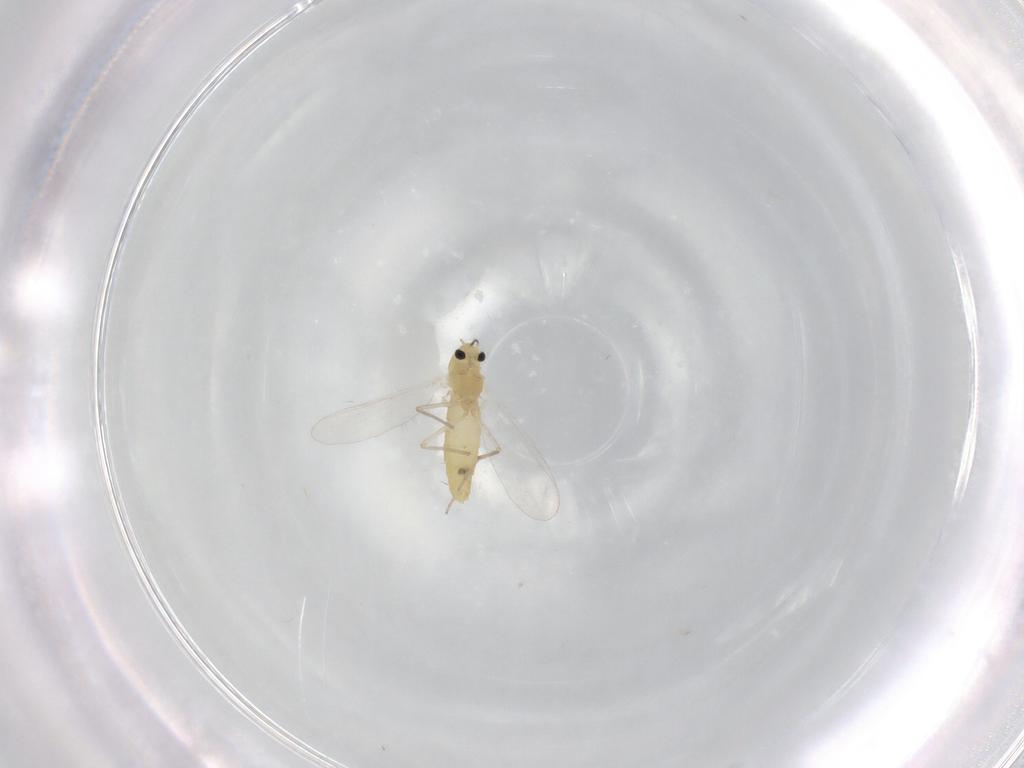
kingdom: Animalia
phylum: Arthropoda
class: Insecta
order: Diptera
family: Chironomidae
